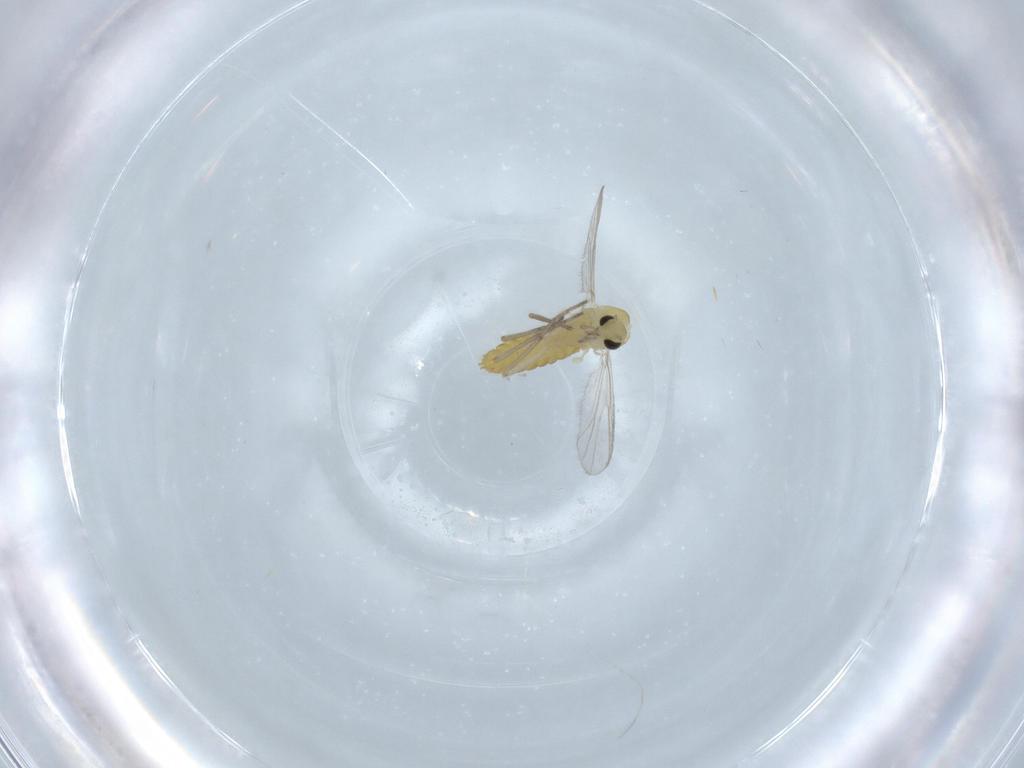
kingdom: Animalia
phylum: Arthropoda
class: Insecta
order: Diptera
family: Chironomidae
